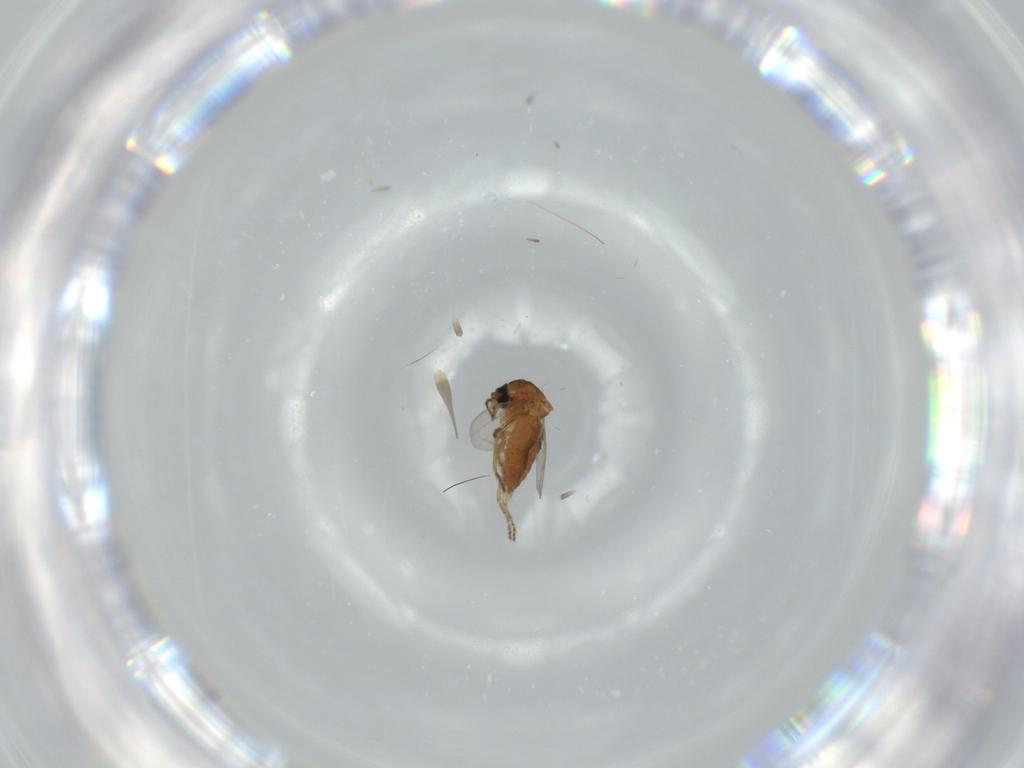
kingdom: Animalia
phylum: Arthropoda
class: Insecta
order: Diptera
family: Ceratopogonidae
